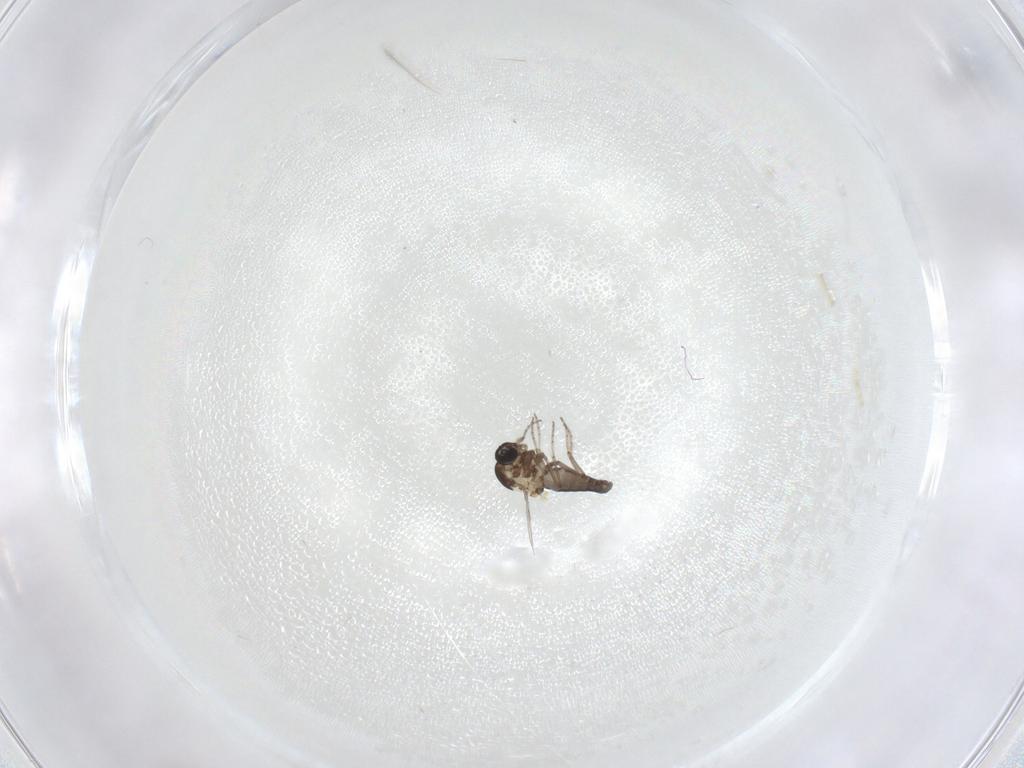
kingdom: Animalia
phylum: Arthropoda
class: Insecta
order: Diptera
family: Ceratopogonidae
